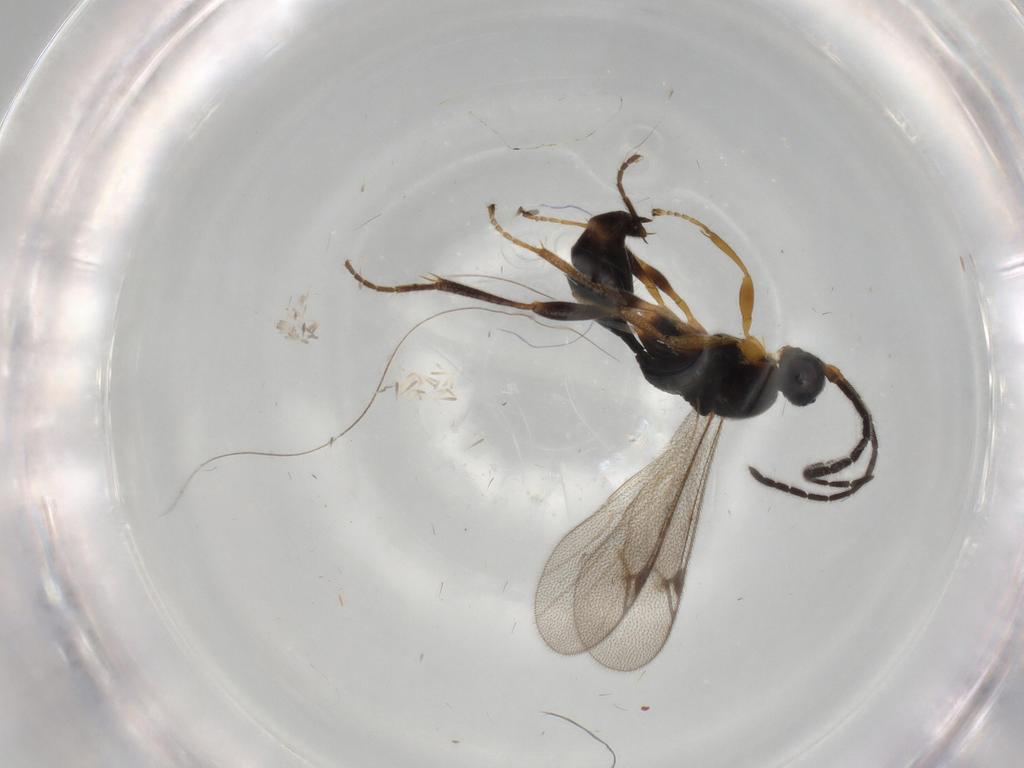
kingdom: Animalia
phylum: Arthropoda
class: Insecta
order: Hymenoptera
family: Proctotrupidae
